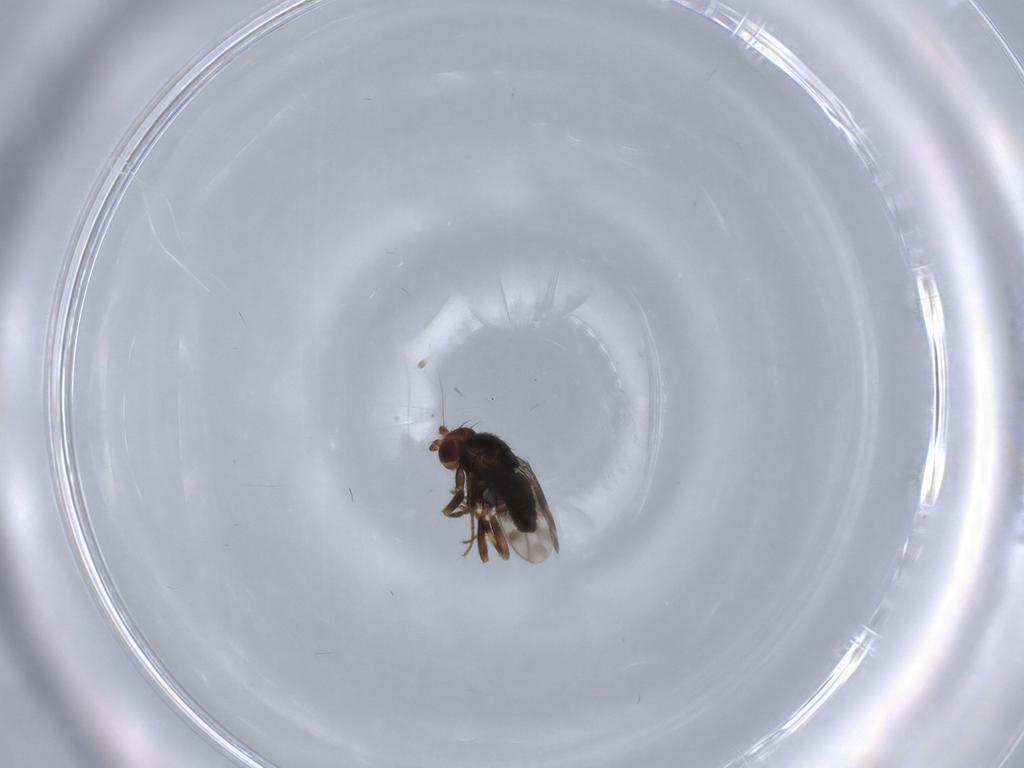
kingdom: Animalia
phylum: Arthropoda
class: Insecta
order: Diptera
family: Sphaeroceridae
